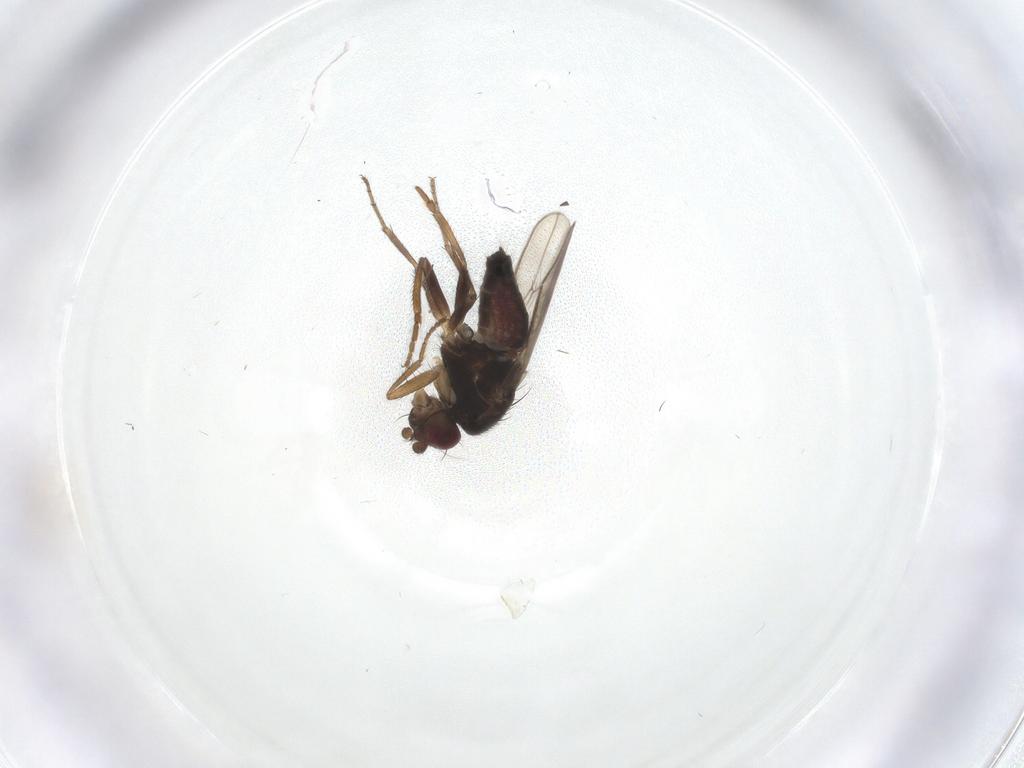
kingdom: Animalia
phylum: Arthropoda
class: Insecta
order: Diptera
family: Sphaeroceridae
